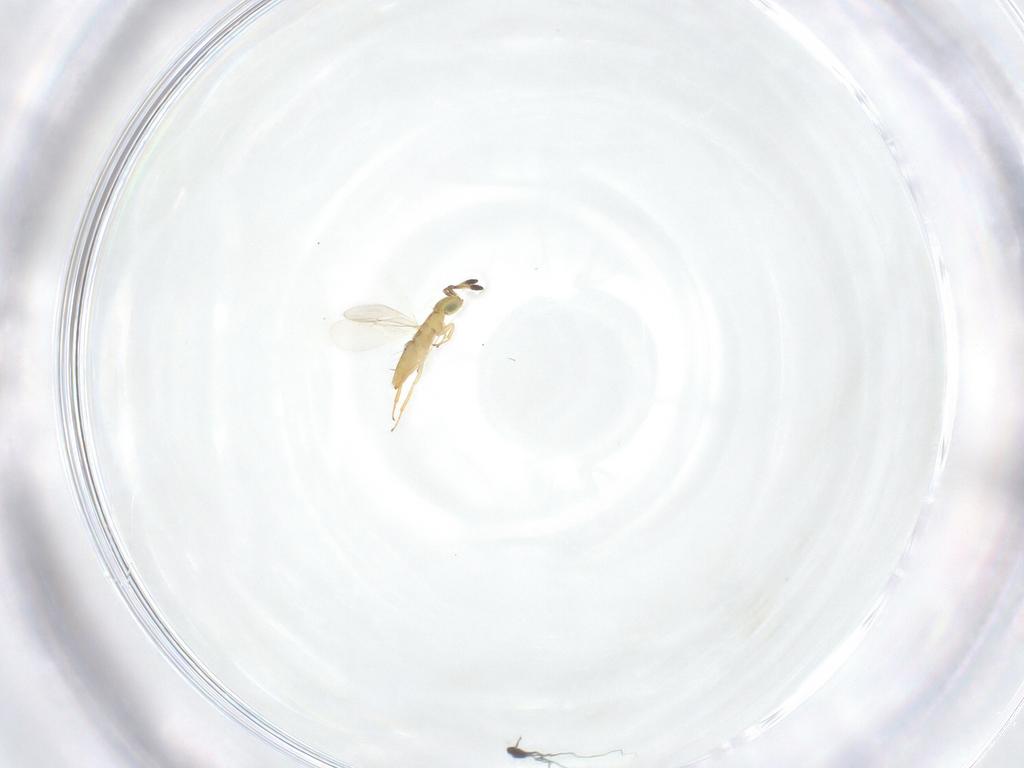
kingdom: Animalia
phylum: Arthropoda
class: Insecta
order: Hymenoptera
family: Encyrtidae
